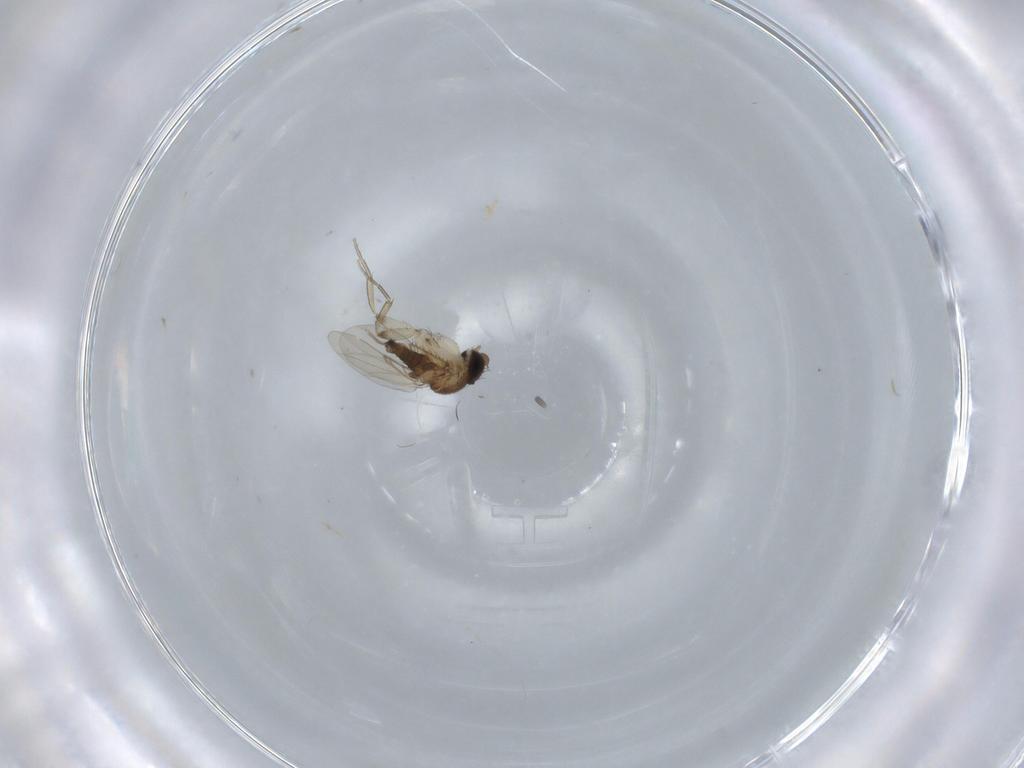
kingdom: Animalia
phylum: Arthropoda
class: Insecta
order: Diptera
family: Phoridae
